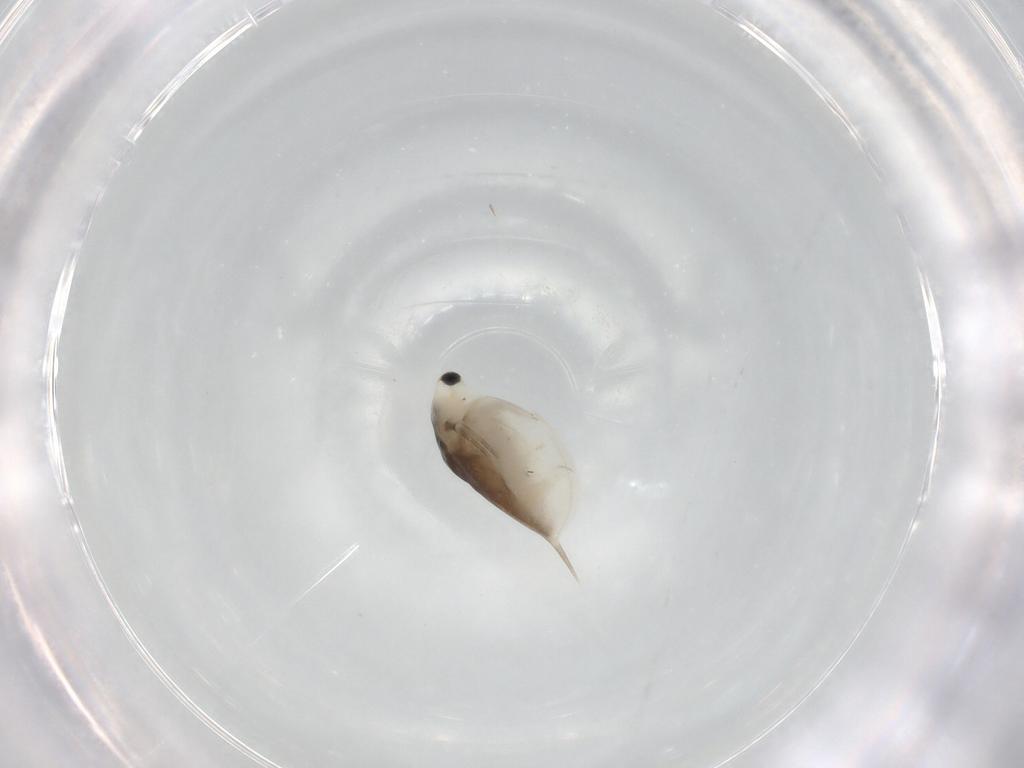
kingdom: Animalia
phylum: Arthropoda
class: Branchiopoda
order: Diplostraca
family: Daphniidae
